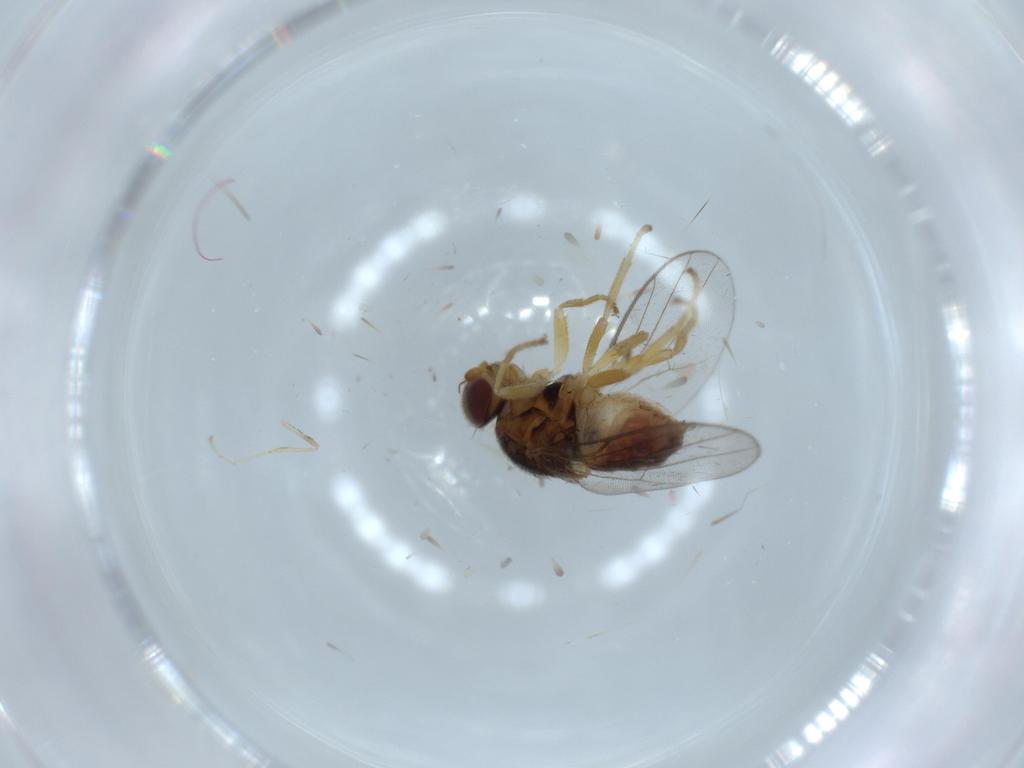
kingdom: Animalia
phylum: Arthropoda
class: Insecta
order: Diptera
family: Chloropidae
